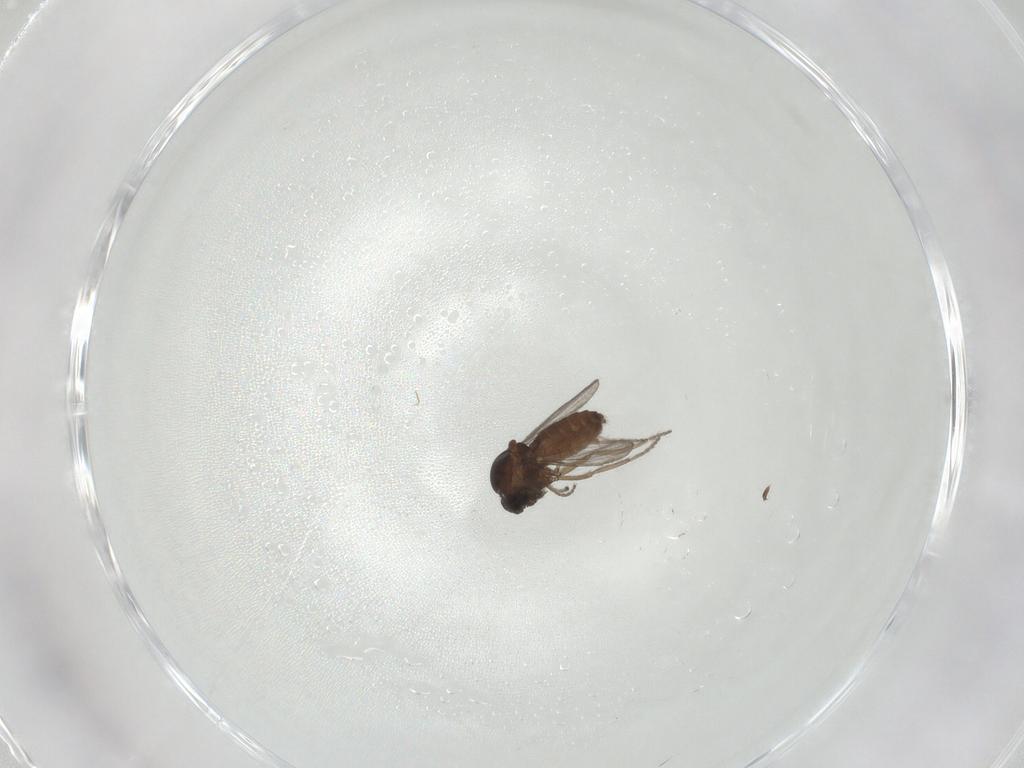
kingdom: Animalia
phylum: Arthropoda
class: Insecta
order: Diptera
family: Ceratopogonidae
